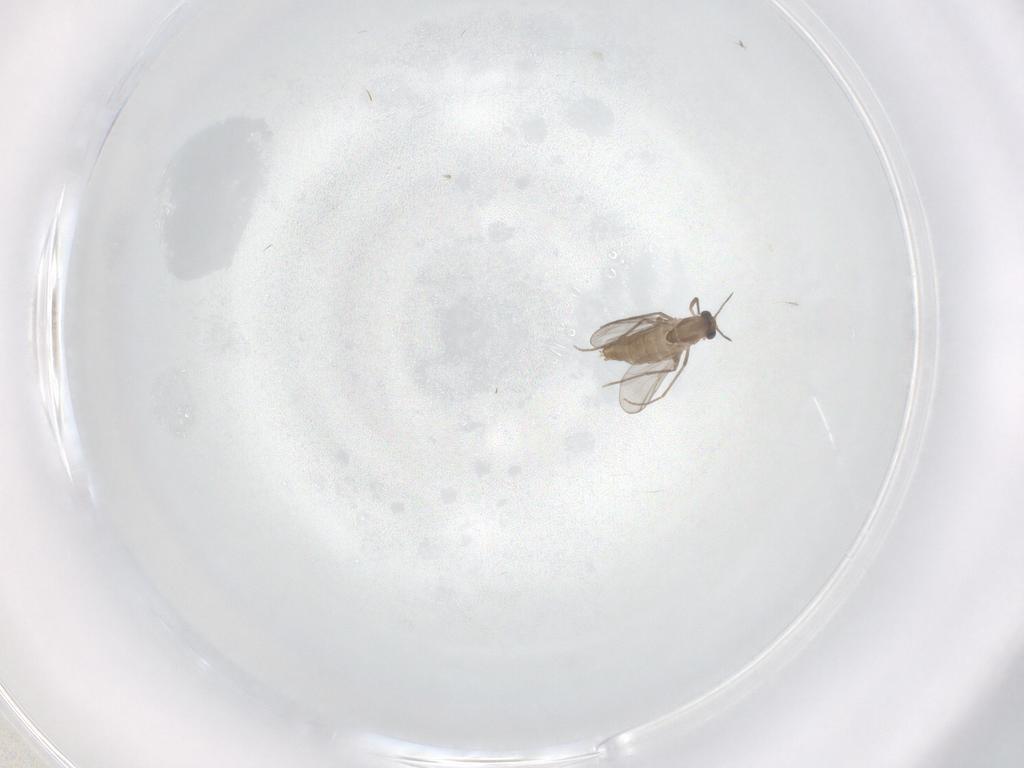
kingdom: Animalia
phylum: Arthropoda
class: Insecta
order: Diptera
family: Chironomidae
